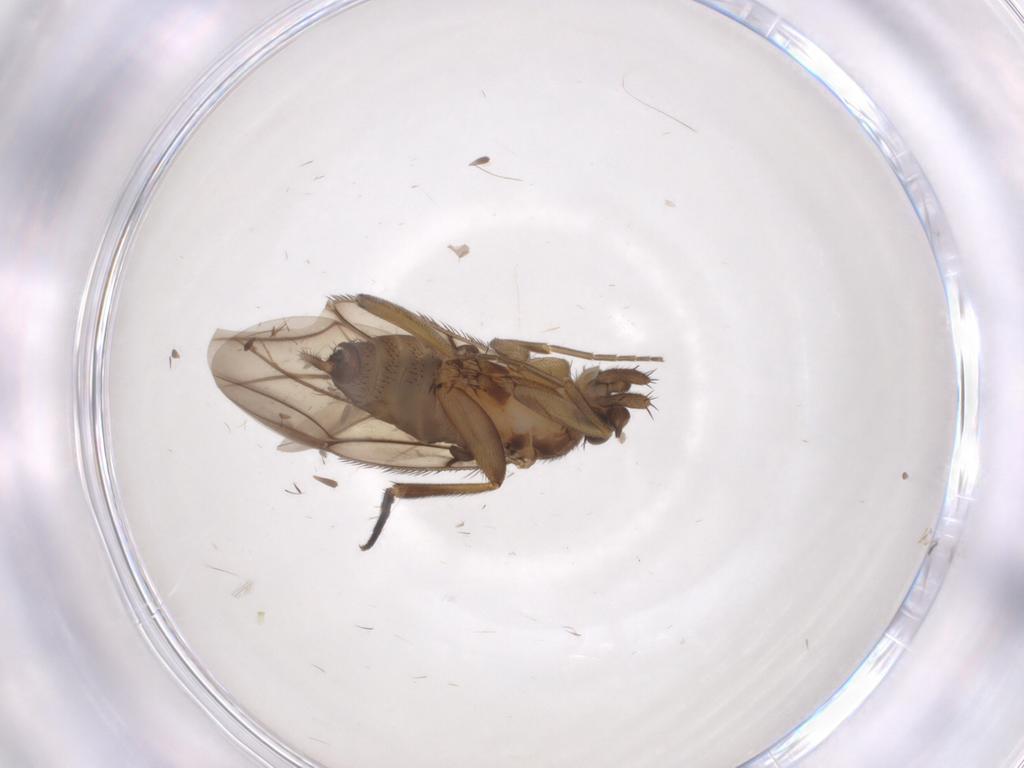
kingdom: Animalia
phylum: Arthropoda
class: Insecta
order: Diptera
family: Phoridae
